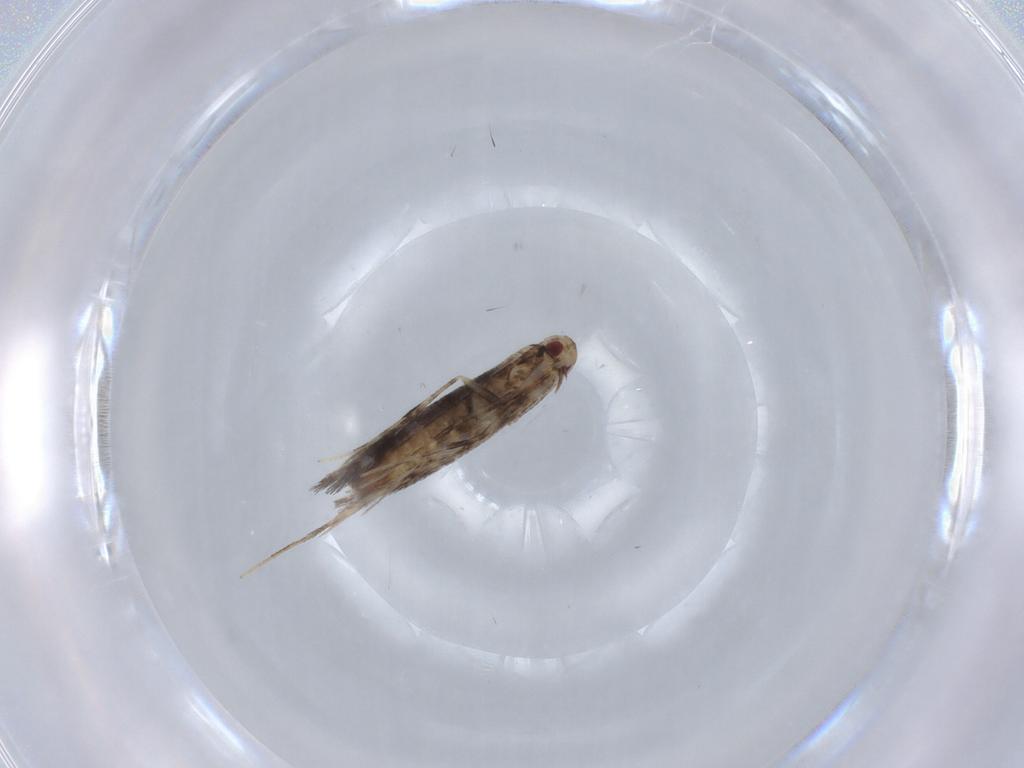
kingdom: Animalia
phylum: Arthropoda
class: Insecta
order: Lepidoptera
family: Gracillariidae
